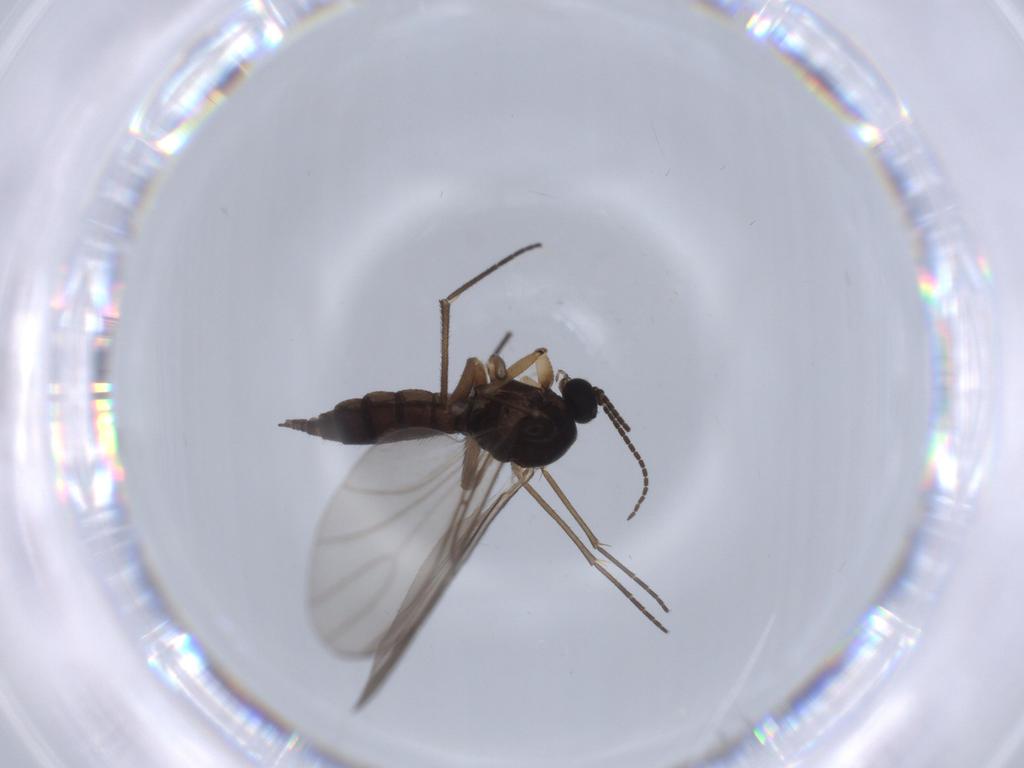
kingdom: Animalia
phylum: Arthropoda
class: Insecta
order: Diptera
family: Sciaridae
